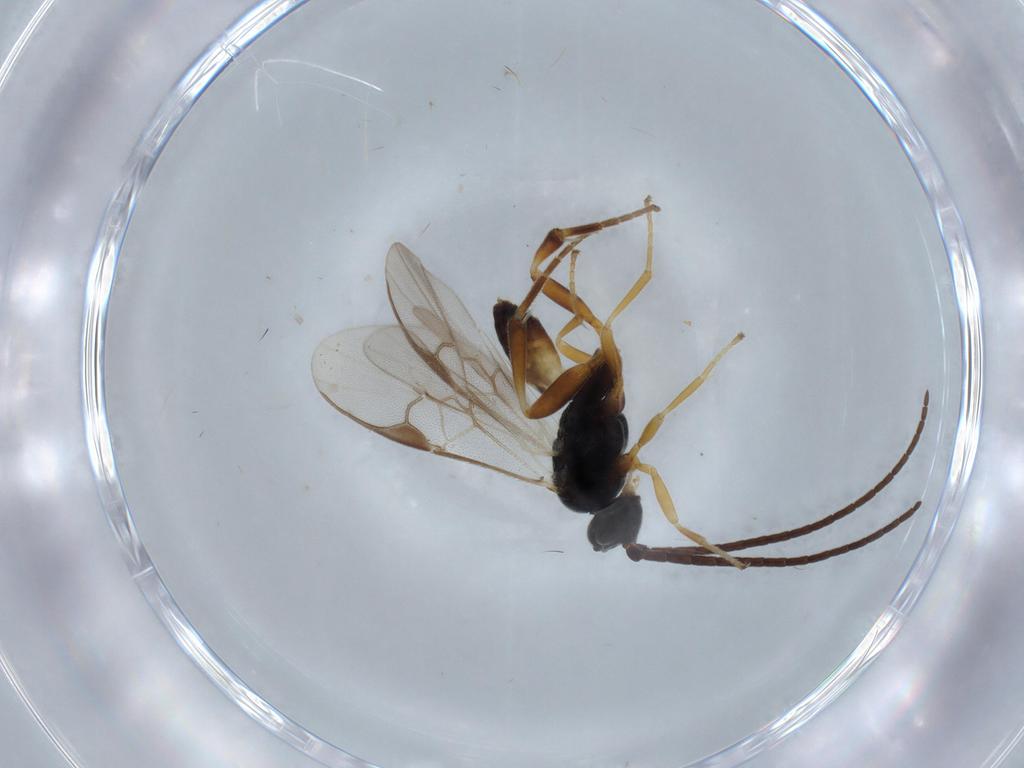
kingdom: Animalia
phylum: Arthropoda
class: Insecta
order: Hymenoptera
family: Braconidae
